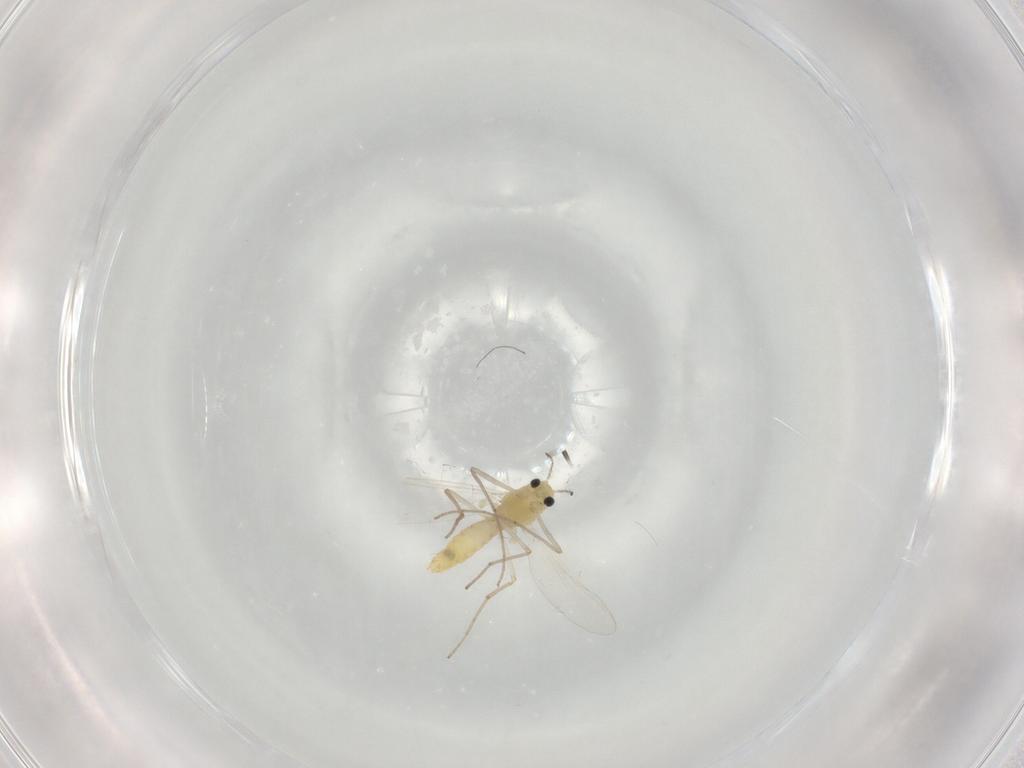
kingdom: Animalia
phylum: Arthropoda
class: Insecta
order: Diptera
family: Chironomidae
